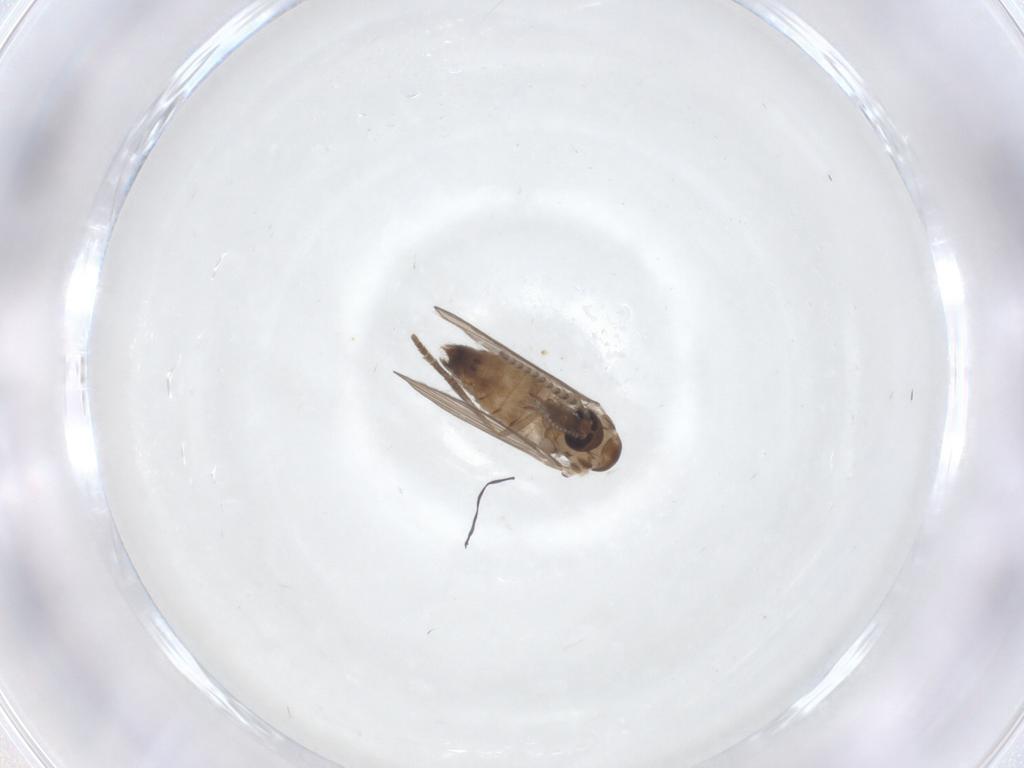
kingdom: Animalia
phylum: Arthropoda
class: Insecta
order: Diptera
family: Psychodidae
